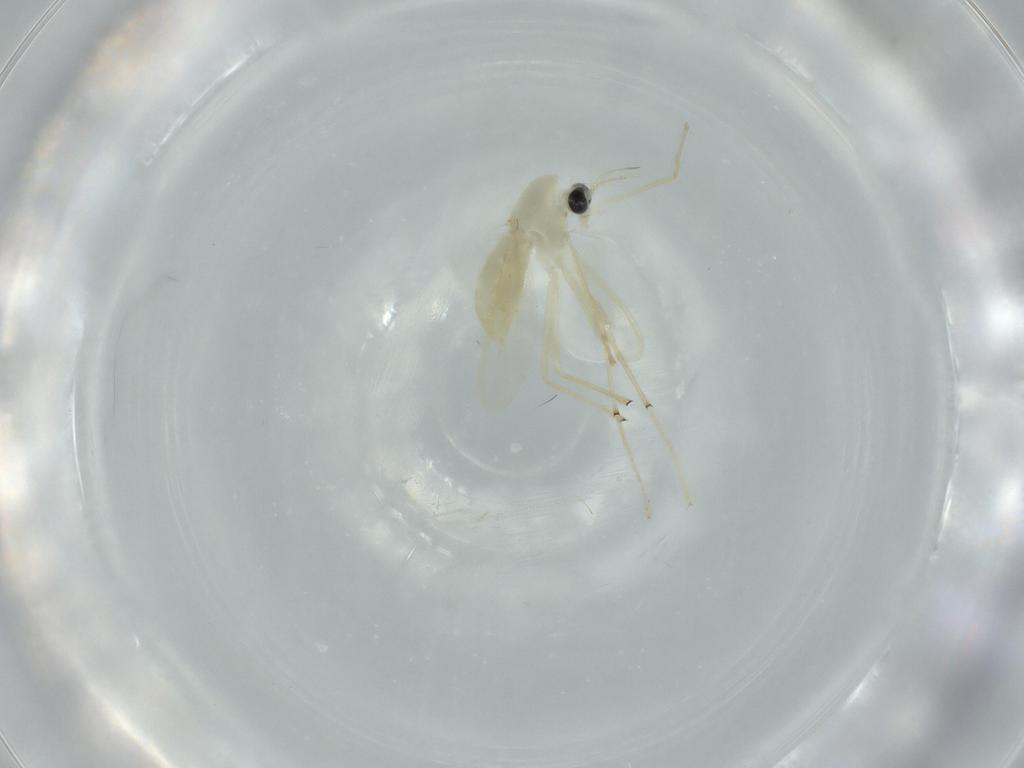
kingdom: Animalia
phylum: Arthropoda
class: Insecta
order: Diptera
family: Chironomidae
